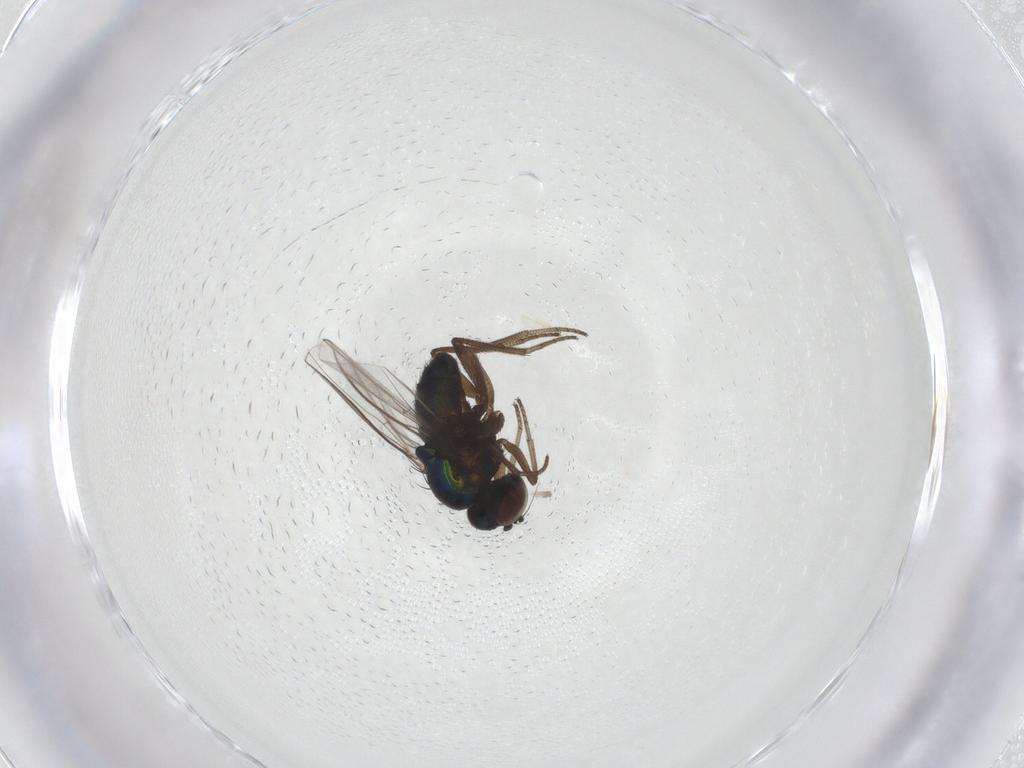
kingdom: Animalia
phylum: Arthropoda
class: Insecta
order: Diptera
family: Dolichopodidae
